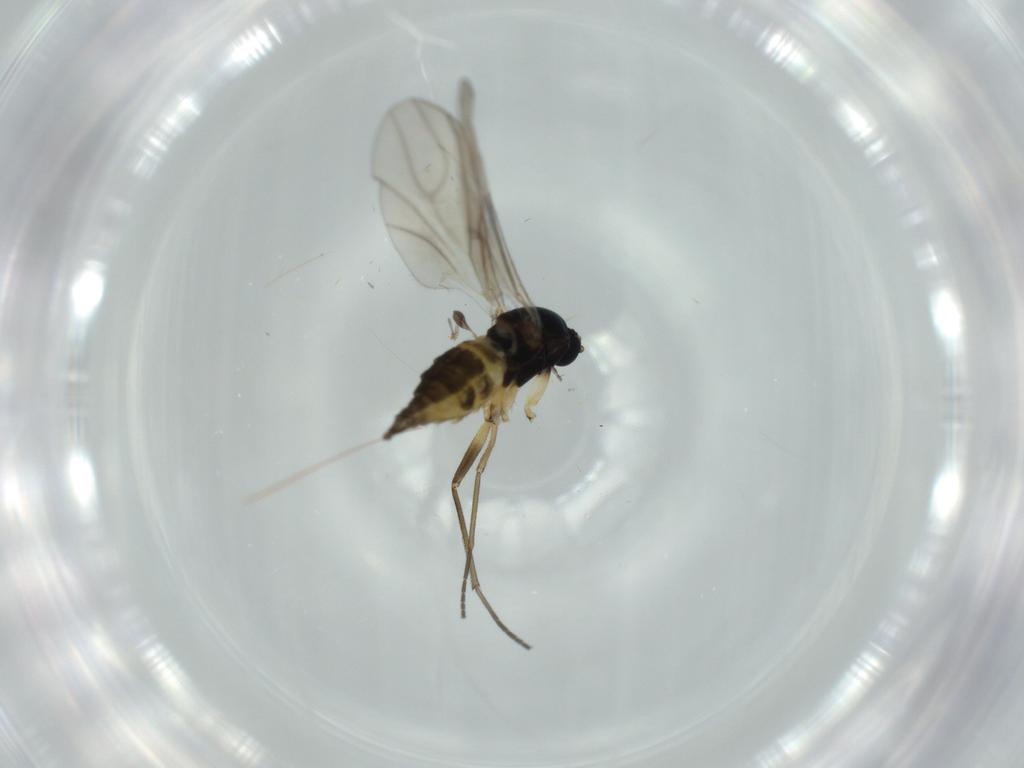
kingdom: Animalia
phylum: Arthropoda
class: Insecta
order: Diptera
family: Sciaridae
